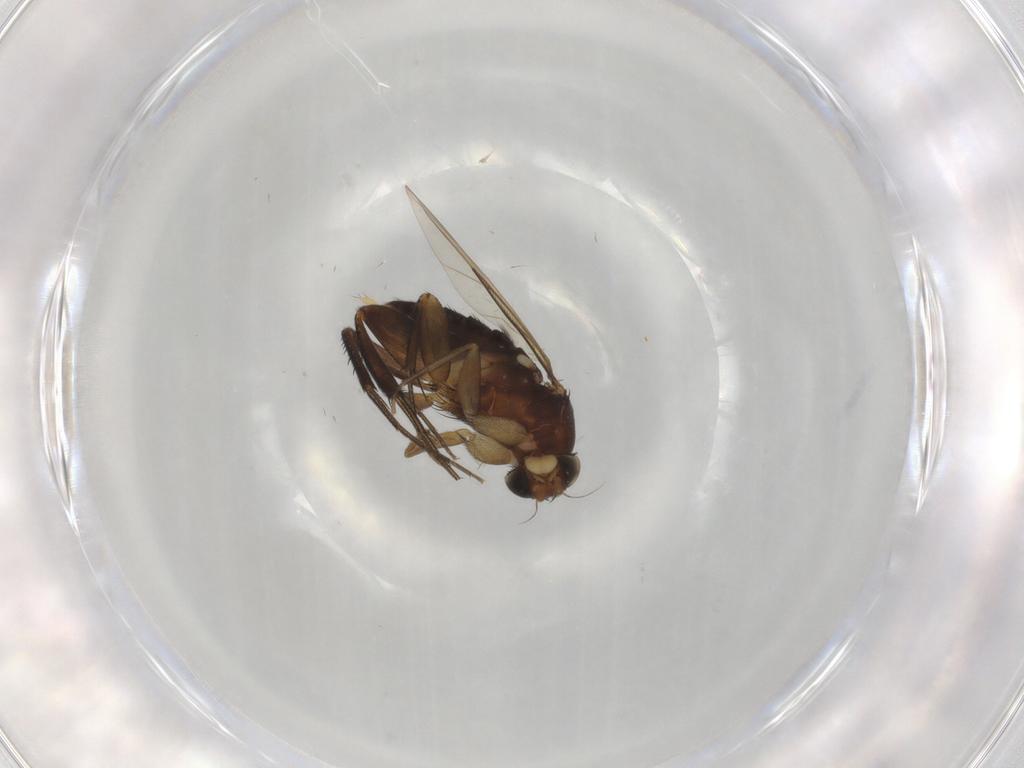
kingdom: Animalia
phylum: Arthropoda
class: Insecta
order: Diptera
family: Phoridae
